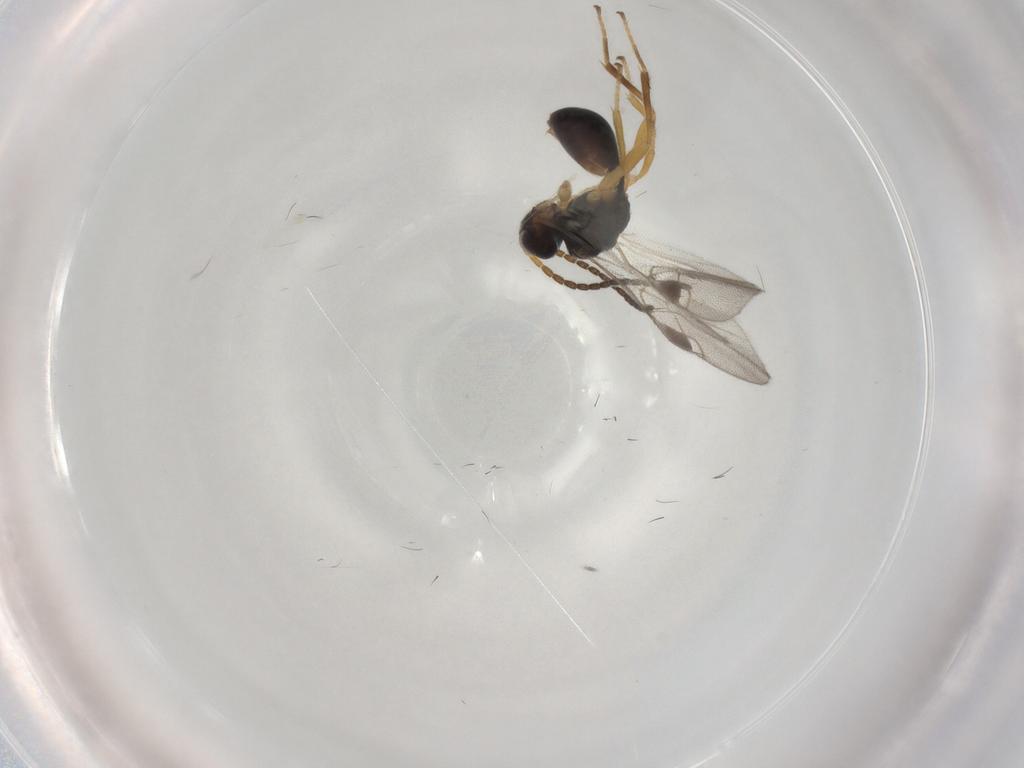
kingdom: Animalia
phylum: Arthropoda
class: Insecta
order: Hymenoptera
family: Braconidae
